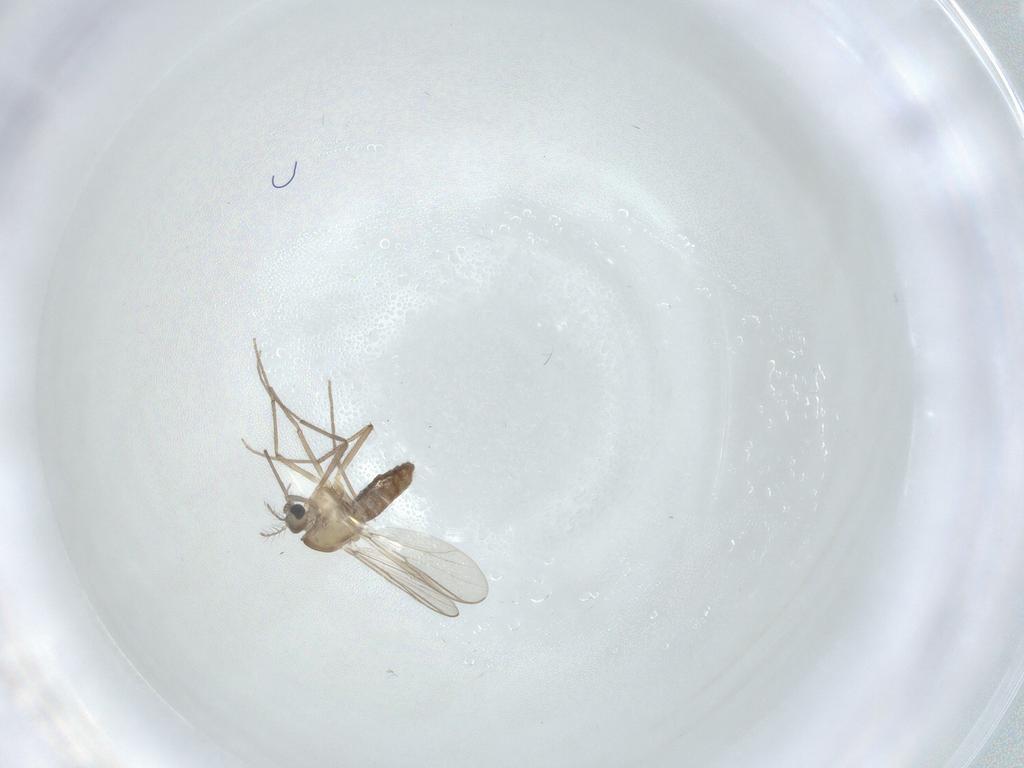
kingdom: Animalia
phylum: Arthropoda
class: Insecta
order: Diptera
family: Chironomidae
